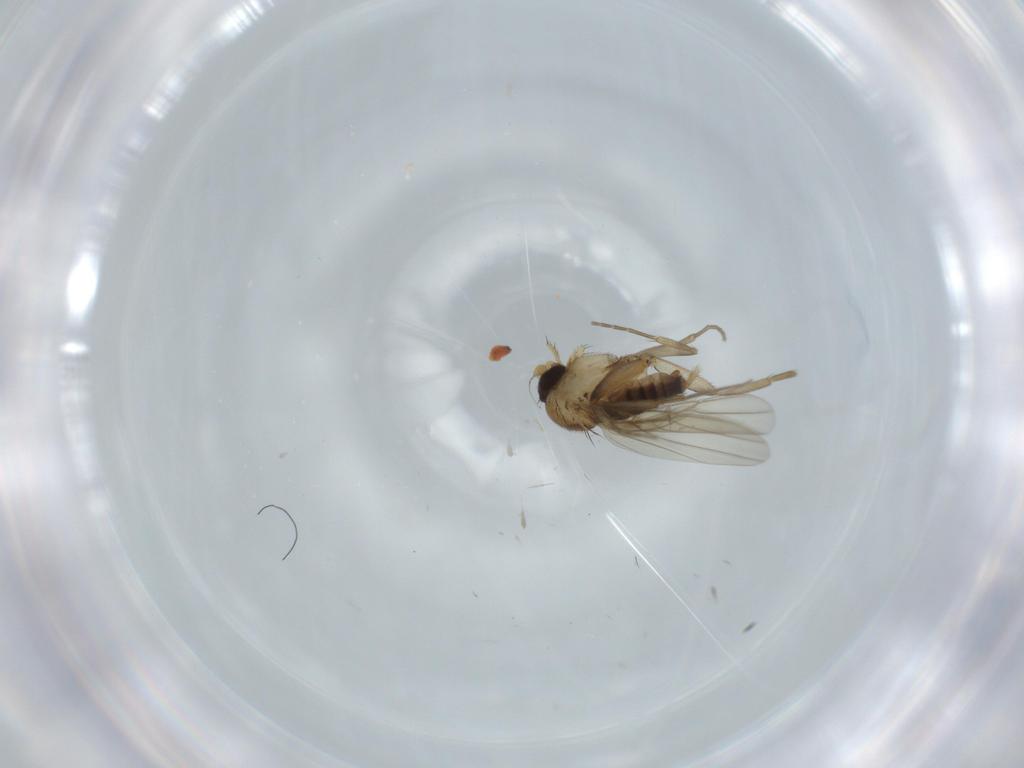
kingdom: Animalia
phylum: Arthropoda
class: Insecta
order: Diptera
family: Phoridae
